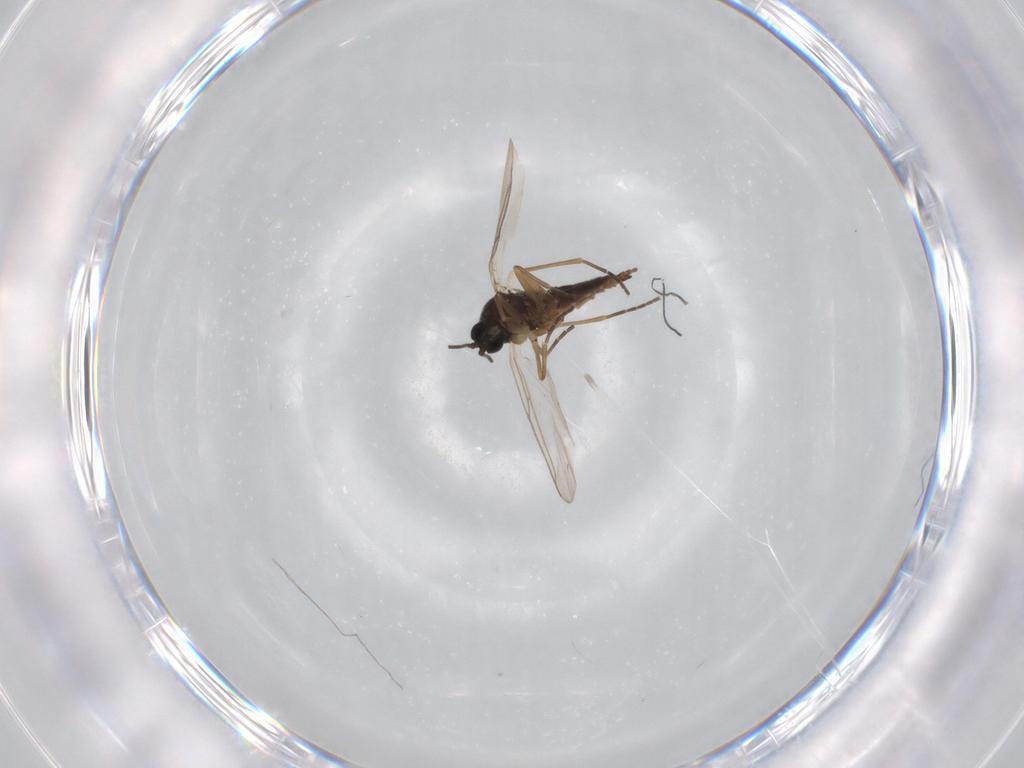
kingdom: Animalia
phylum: Arthropoda
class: Insecta
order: Diptera
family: Sciaridae
